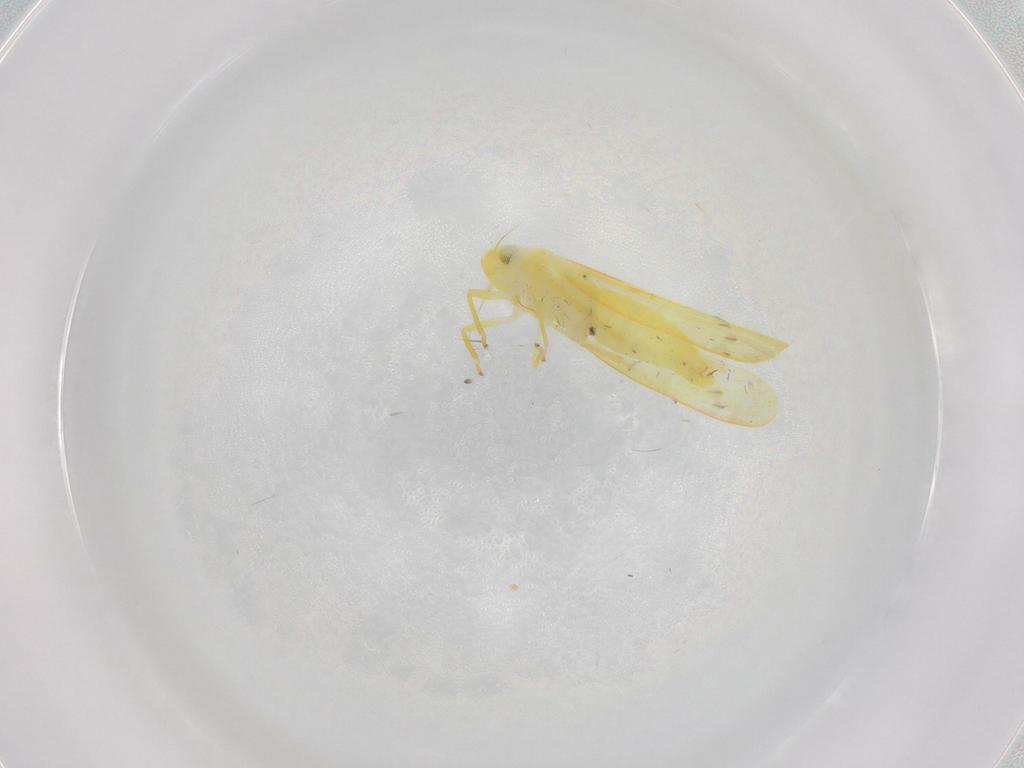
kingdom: Animalia
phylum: Arthropoda
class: Insecta
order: Hemiptera
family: Cicadellidae
